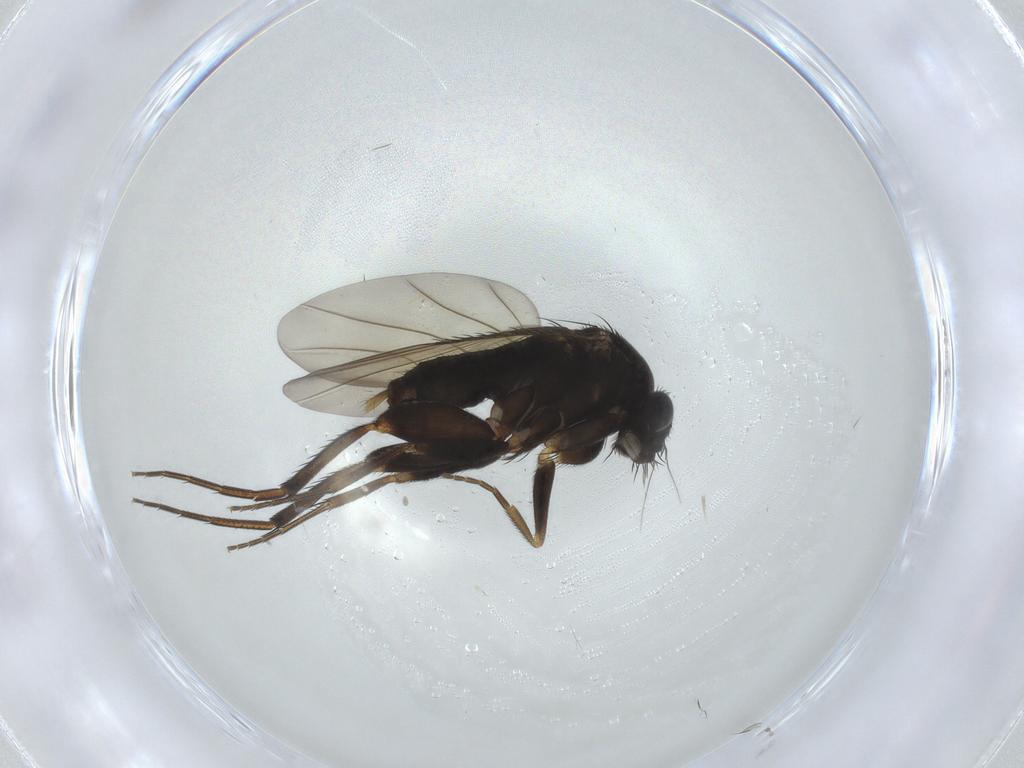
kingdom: Animalia
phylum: Arthropoda
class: Insecta
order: Diptera
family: Phoridae
